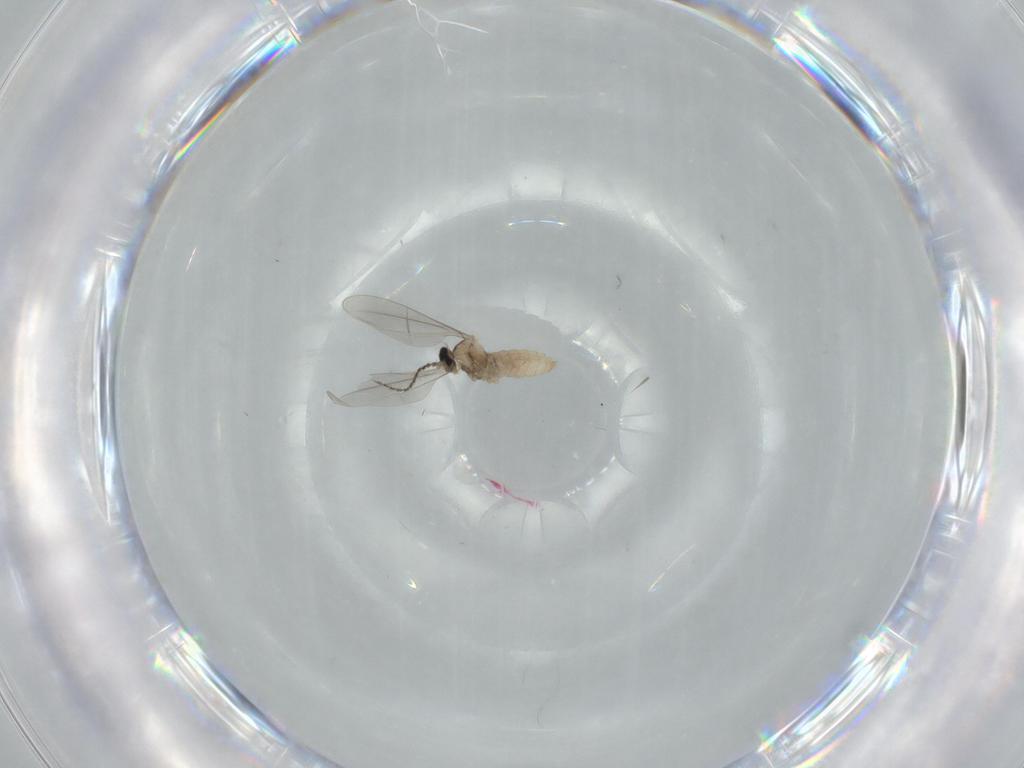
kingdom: Animalia
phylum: Arthropoda
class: Insecta
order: Diptera
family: Cecidomyiidae
